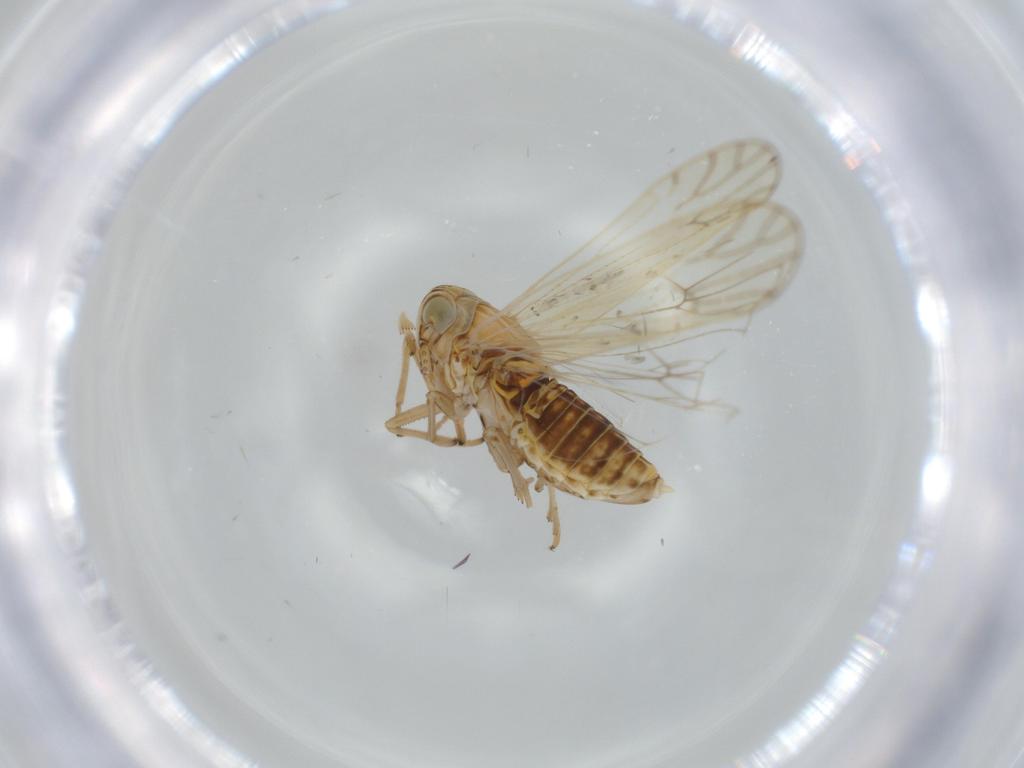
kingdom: Animalia
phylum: Arthropoda
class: Insecta
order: Hemiptera
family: Delphacidae
